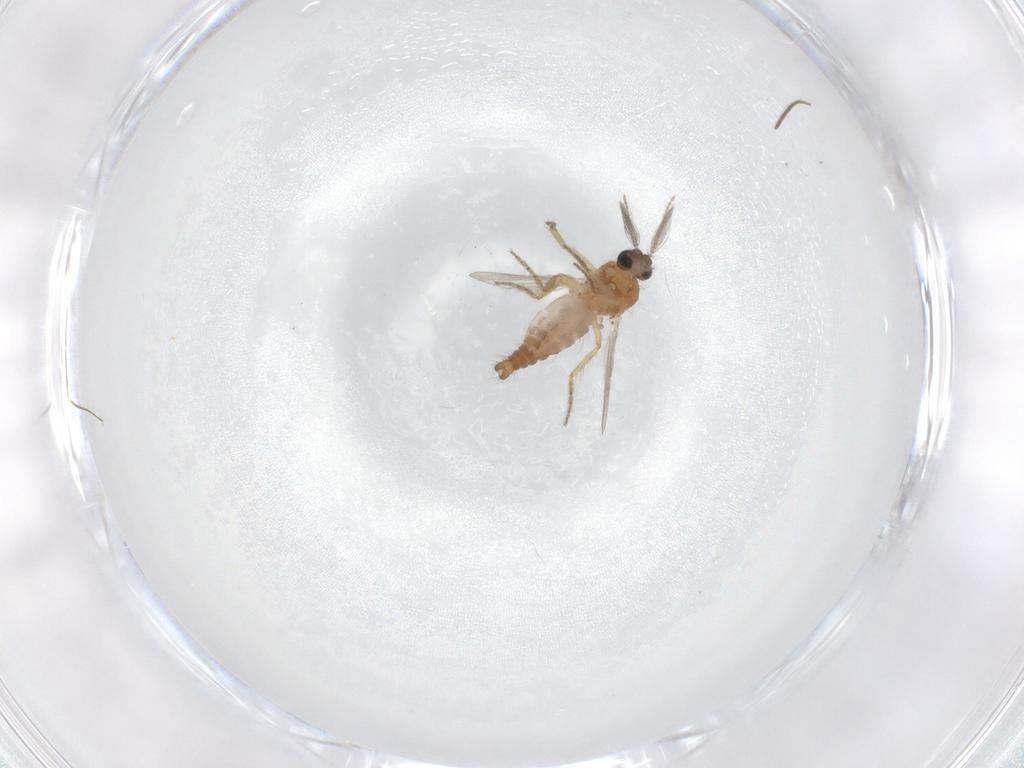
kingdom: Animalia
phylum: Arthropoda
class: Insecta
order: Diptera
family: Ceratopogonidae
